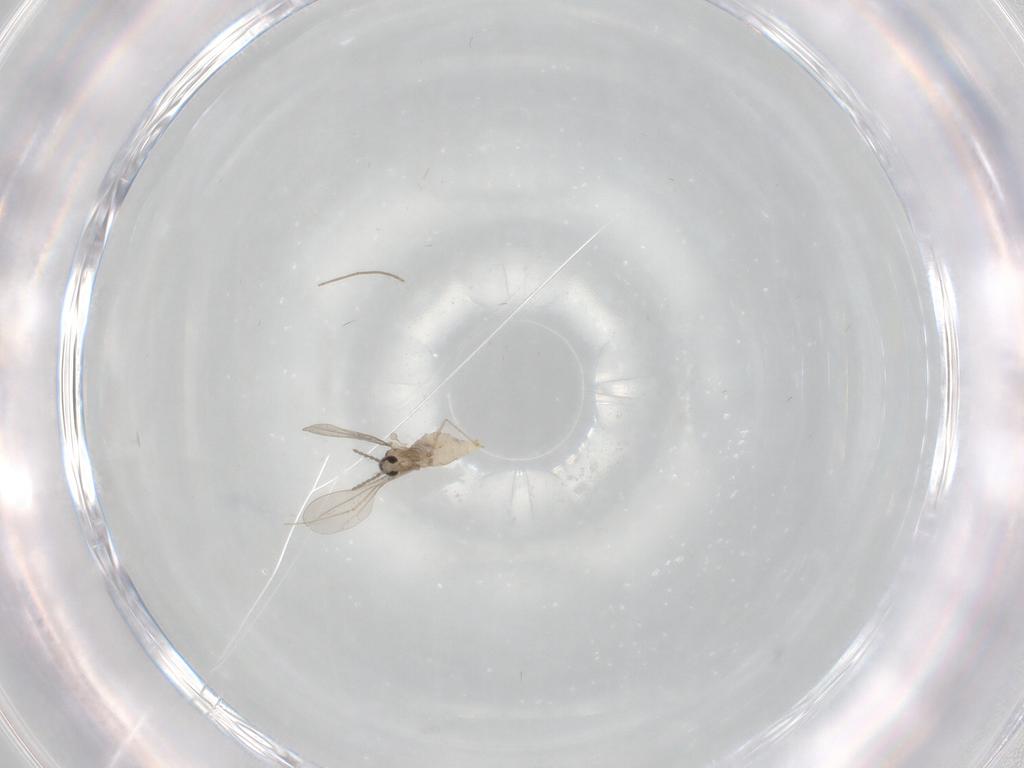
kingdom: Animalia
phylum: Arthropoda
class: Insecta
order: Diptera
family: Cecidomyiidae
